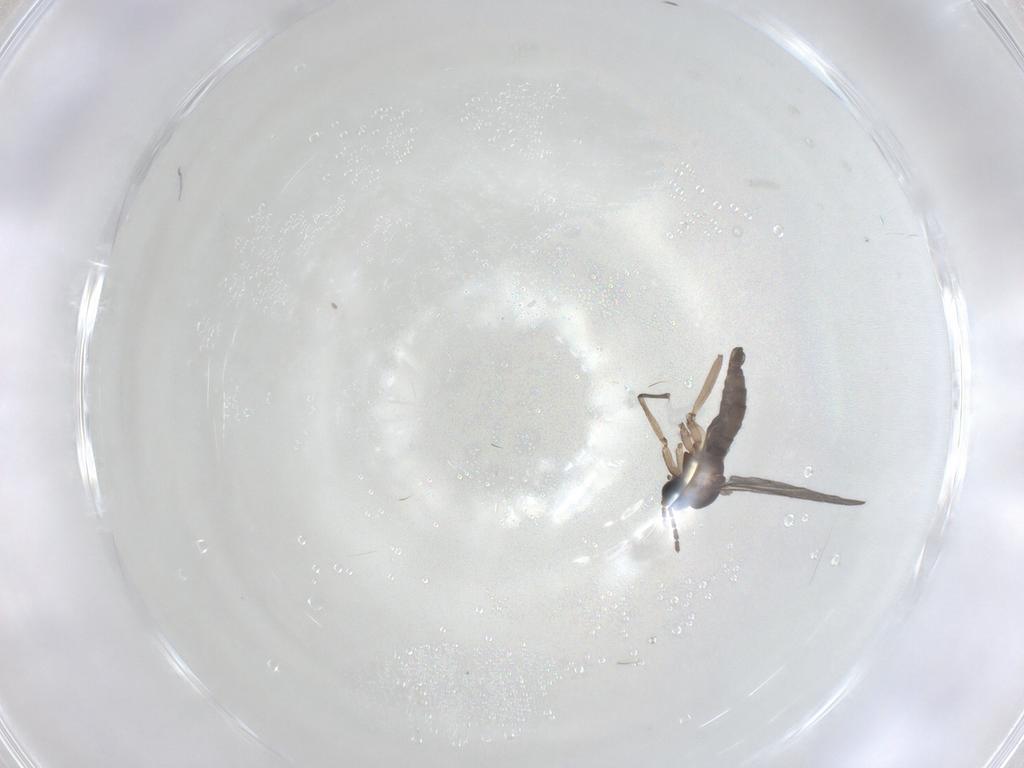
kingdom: Animalia
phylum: Arthropoda
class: Insecta
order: Diptera
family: Sciaridae
